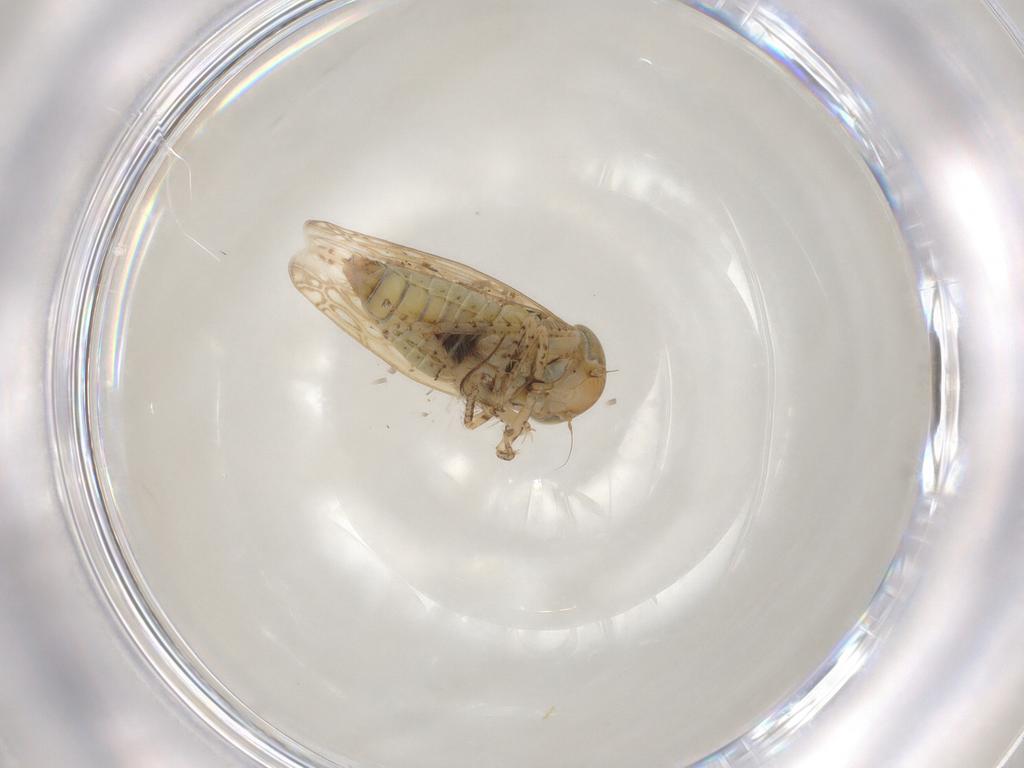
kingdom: Animalia
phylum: Arthropoda
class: Insecta
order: Hemiptera
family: Cicadellidae
